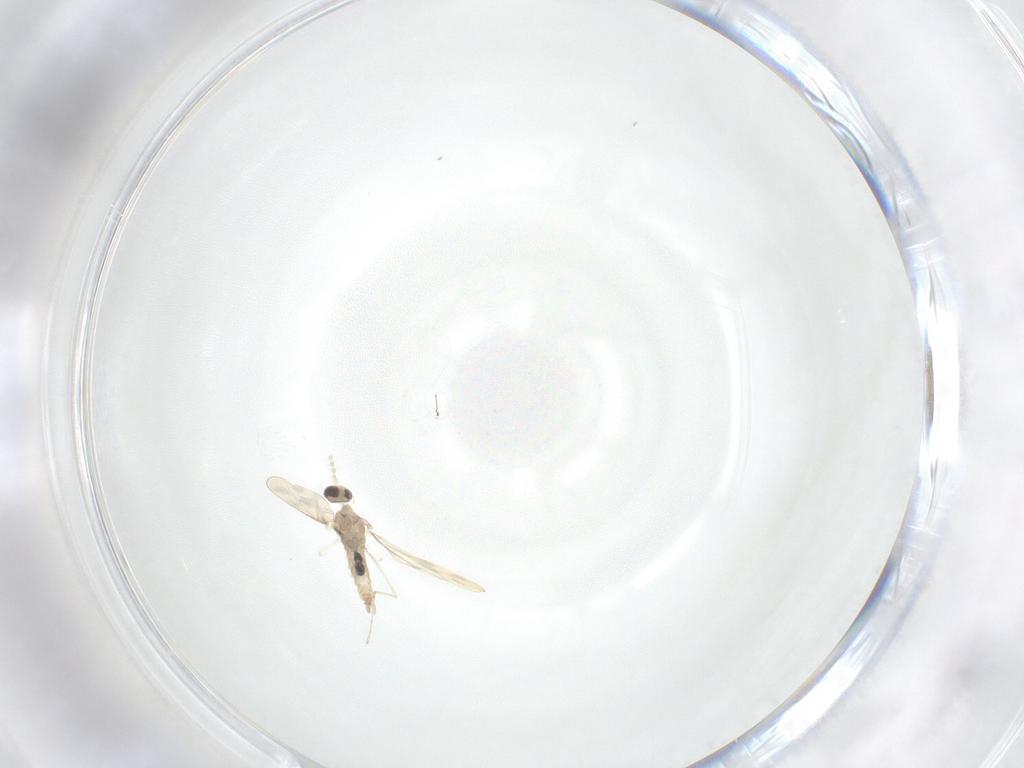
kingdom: Animalia
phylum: Arthropoda
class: Insecta
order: Diptera
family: Cecidomyiidae
